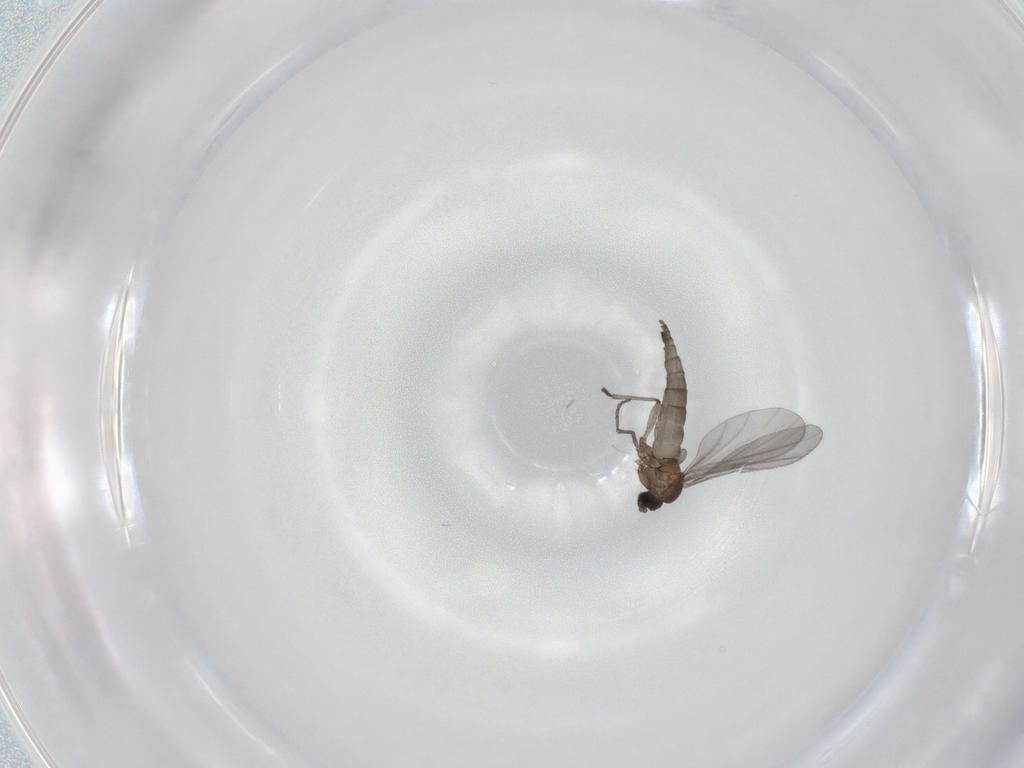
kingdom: Animalia
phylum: Arthropoda
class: Insecta
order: Diptera
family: Sciaridae
